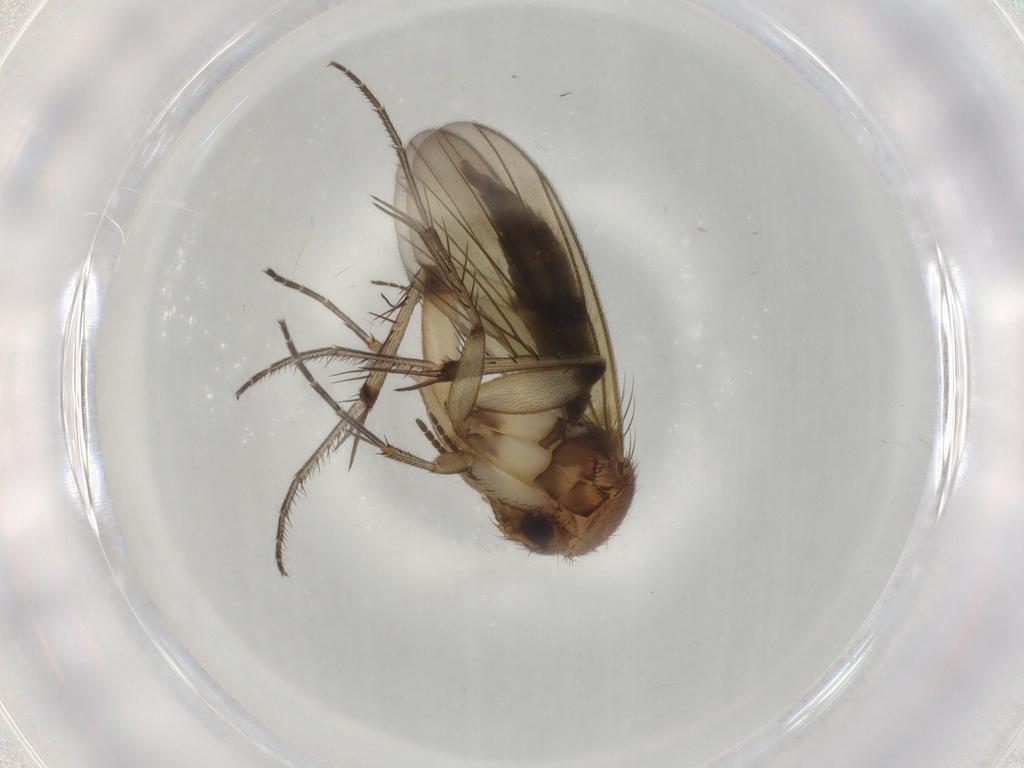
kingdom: Animalia
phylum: Arthropoda
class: Insecta
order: Diptera
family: Mycetophilidae
